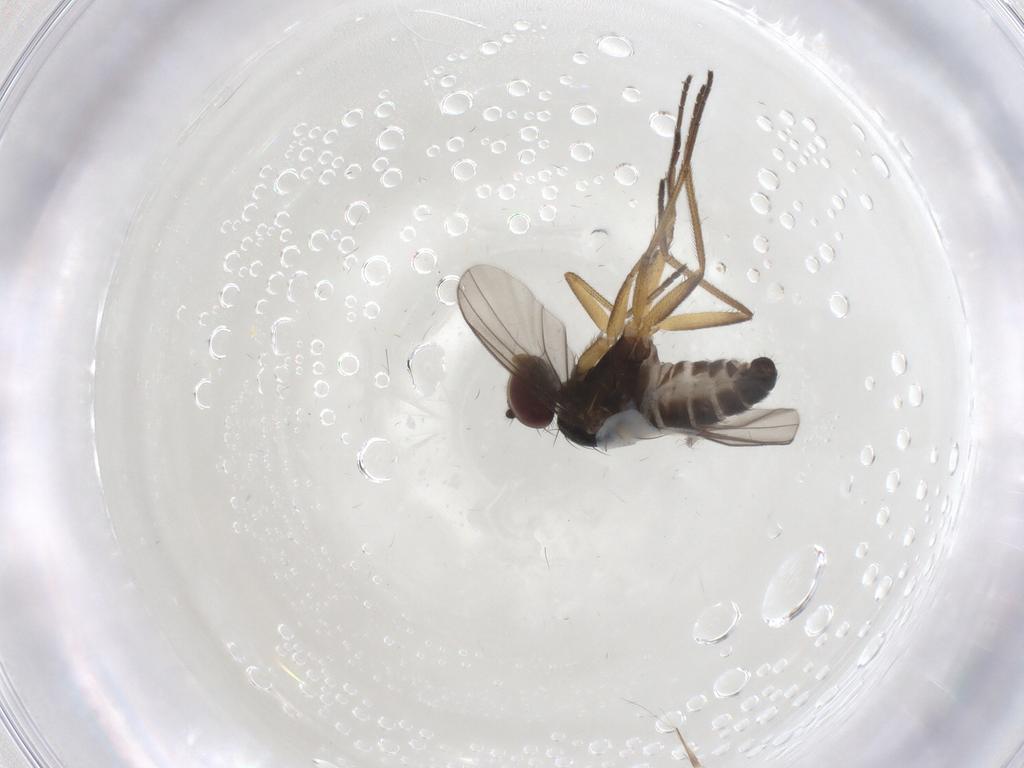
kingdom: Animalia
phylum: Arthropoda
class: Insecta
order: Diptera
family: Dolichopodidae
